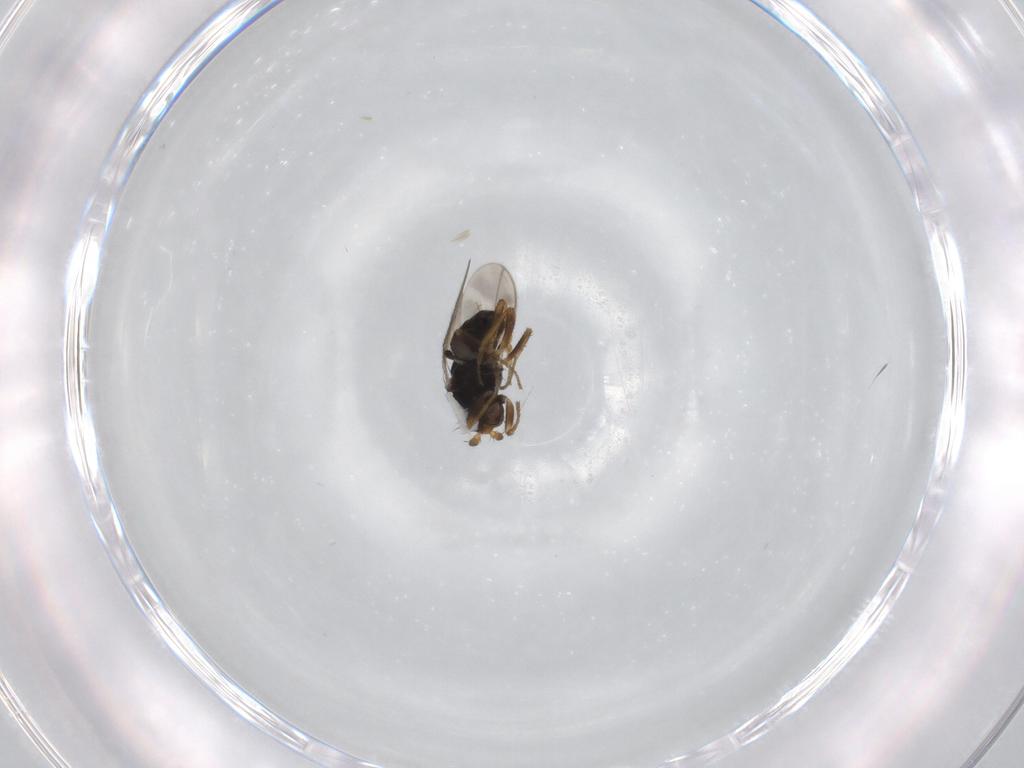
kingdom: Animalia
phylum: Arthropoda
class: Insecta
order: Diptera
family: Sphaeroceridae
